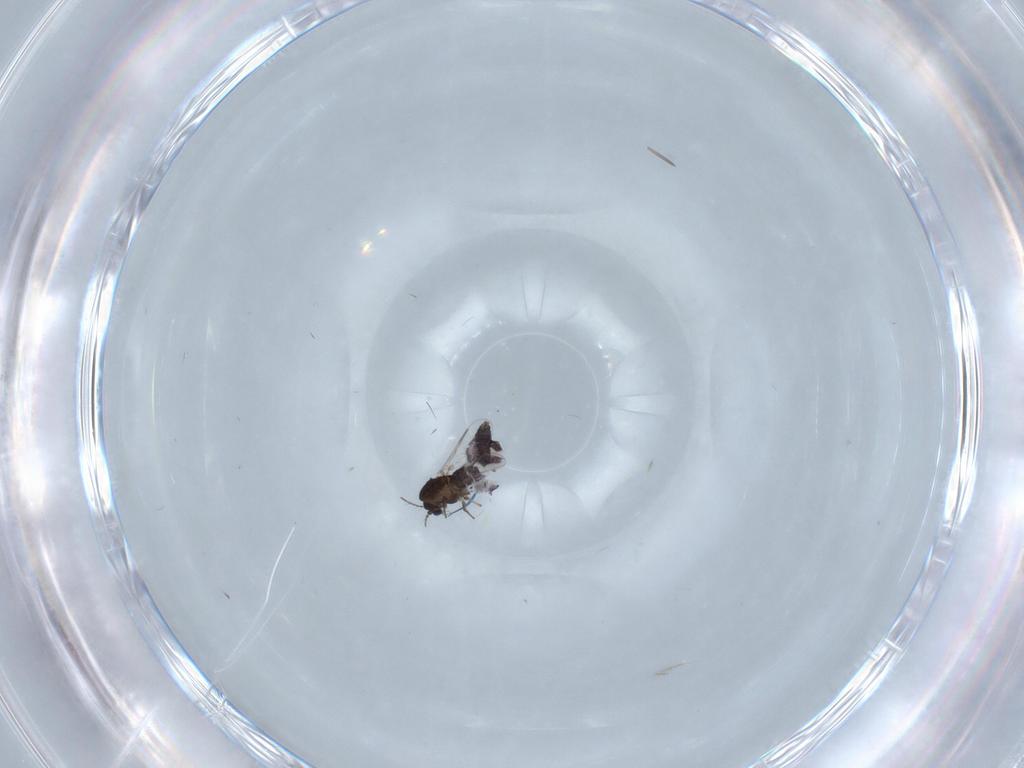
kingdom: Animalia
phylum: Arthropoda
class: Insecta
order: Diptera
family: Chironomidae
